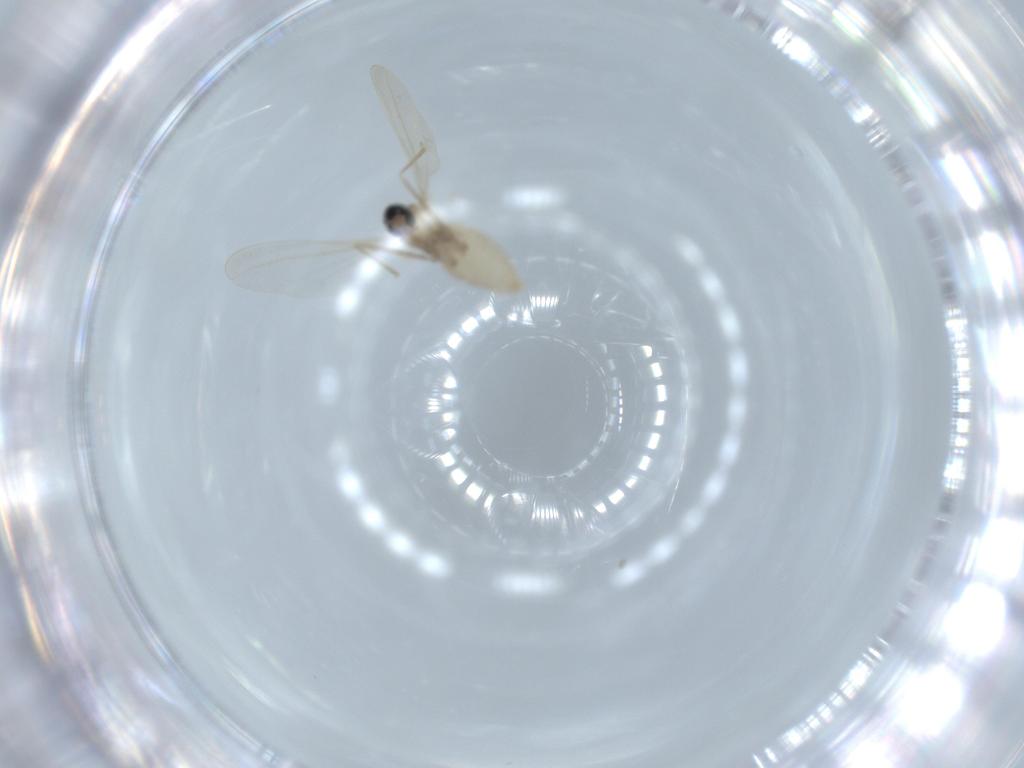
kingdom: Animalia
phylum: Arthropoda
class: Insecta
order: Diptera
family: Cecidomyiidae
